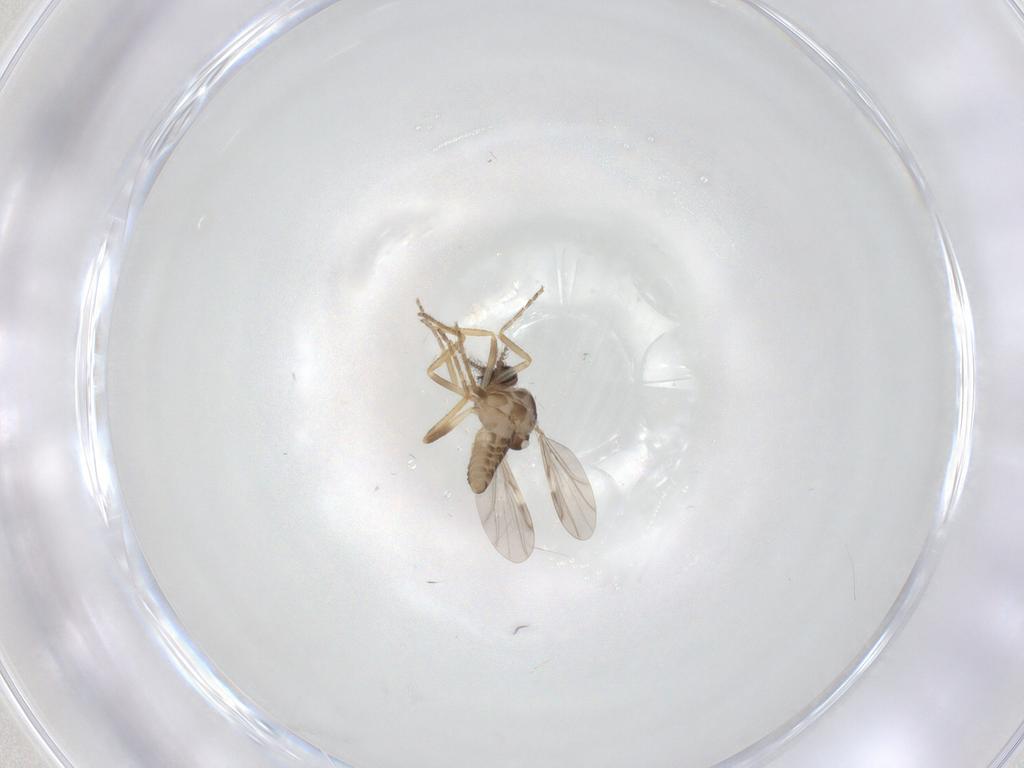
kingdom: Animalia
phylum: Arthropoda
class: Insecta
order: Diptera
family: Ceratopogonidae
